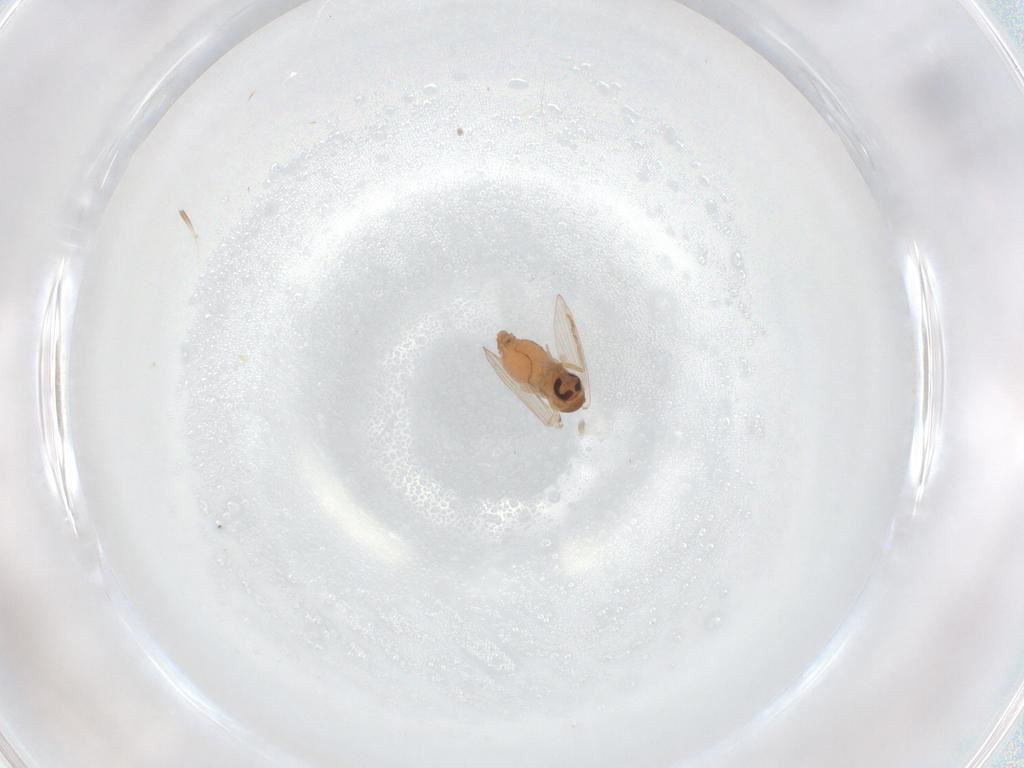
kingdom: Animalia
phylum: Arthropoda
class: Insecta
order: Diptera
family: Psychodidae
